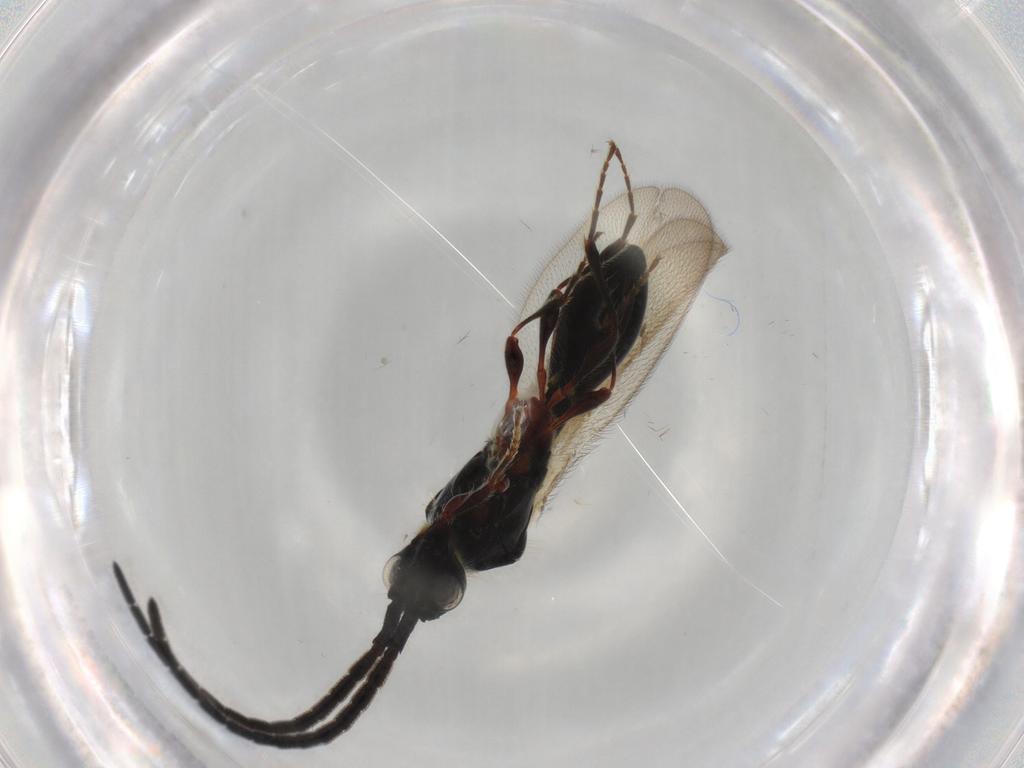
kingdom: Animalia
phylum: Arthropoda
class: Insecta
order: Hymenoptera
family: Diapriidae
